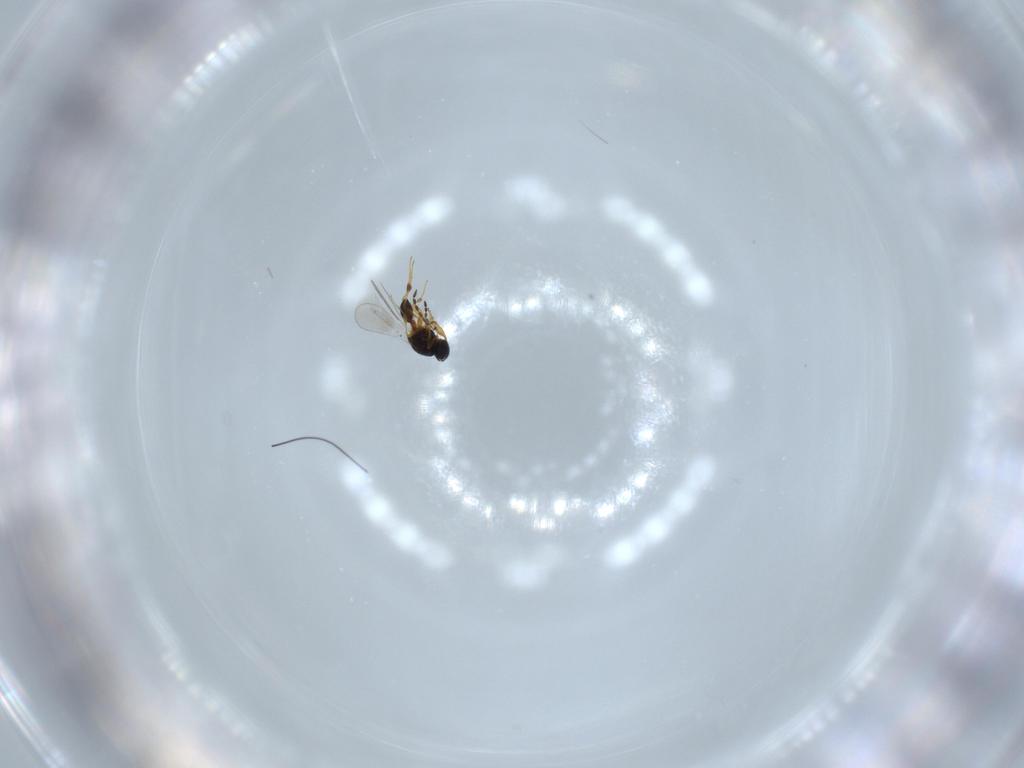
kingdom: Animalia
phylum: Arthropoda
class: Insecta
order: Hymenoptera
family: Platygastridae
